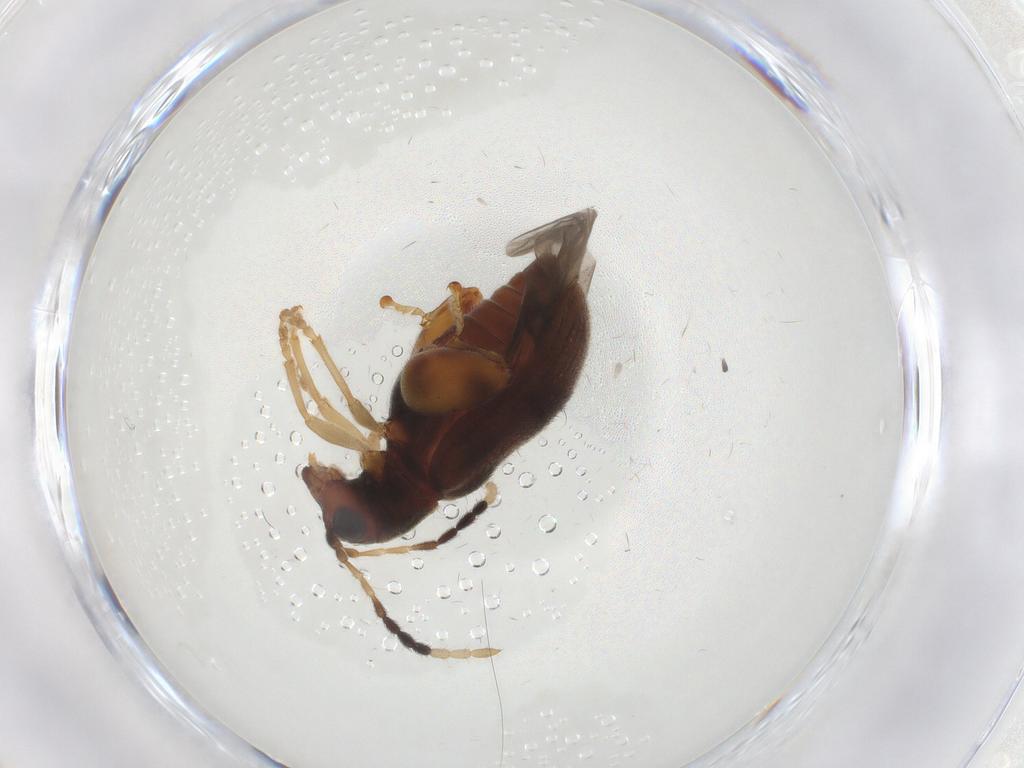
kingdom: Animalia
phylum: Arthropoda
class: Insecta
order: Coleoptera
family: Chrysomelidae
